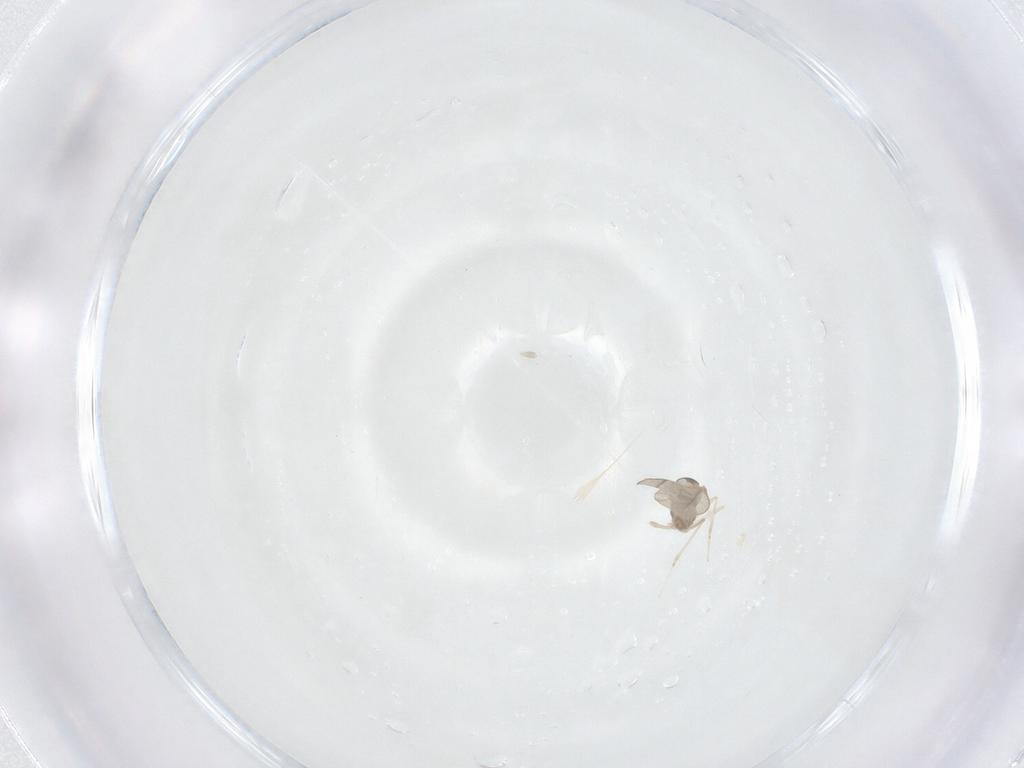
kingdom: Animalia
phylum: Arthropoda
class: Insecta
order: Diptera
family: Cecidomyiidae
